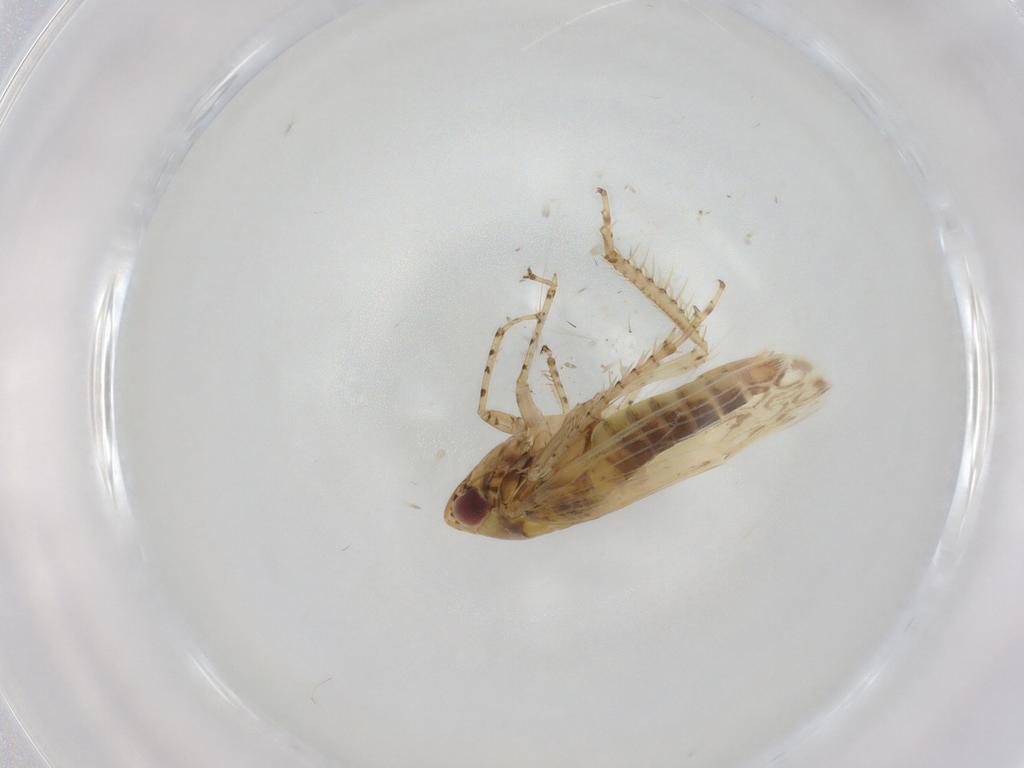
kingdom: Animalia
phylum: Arthropoda
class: Insecta
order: Hemiptera
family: Cicadellidae
